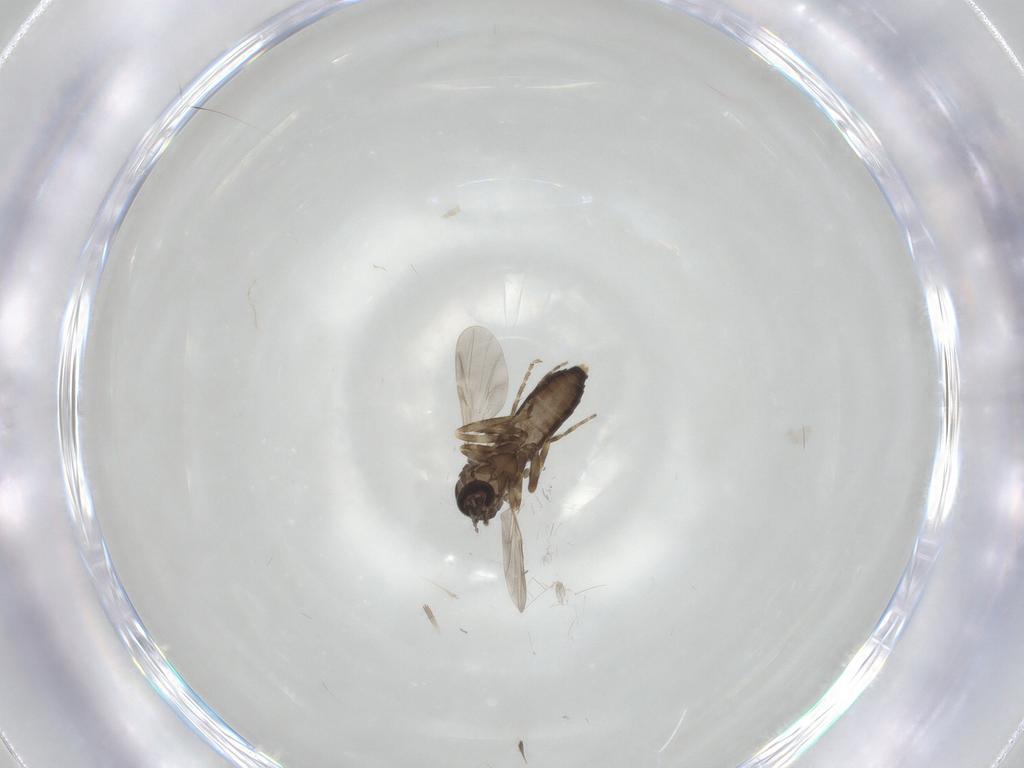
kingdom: Animalia
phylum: Arthropoda
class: Insecta
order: Diptera
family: Ceratopogonidae
